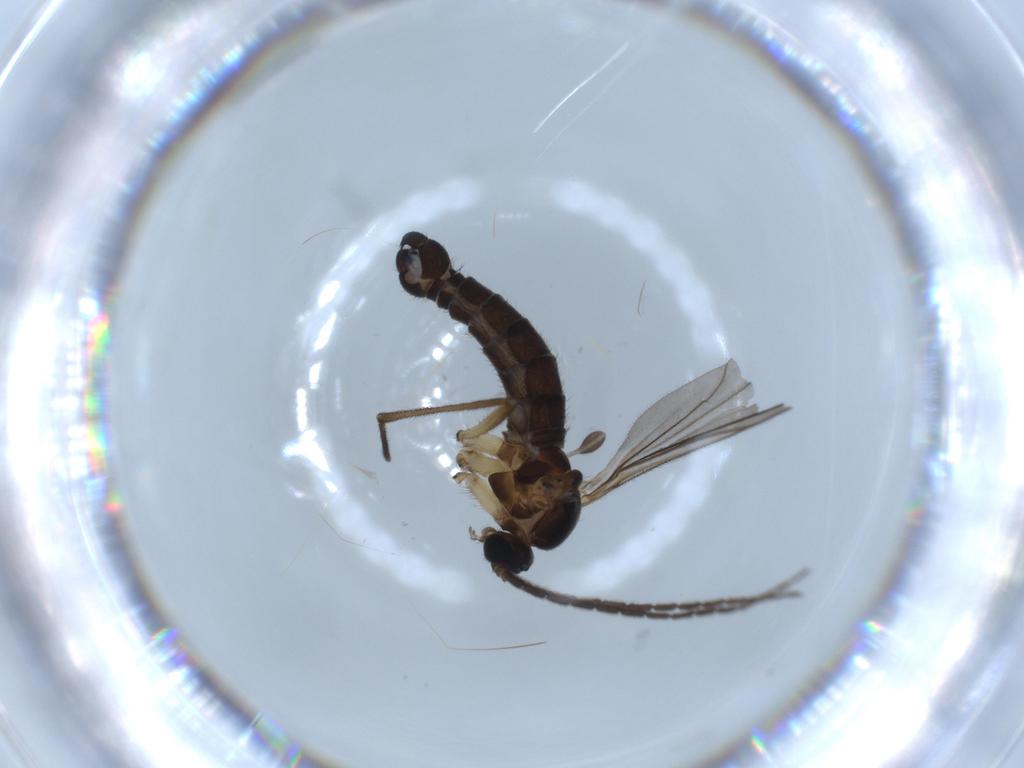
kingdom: Animalia
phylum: Arthropoda
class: Insecta
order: Diptera
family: Sciaridae
